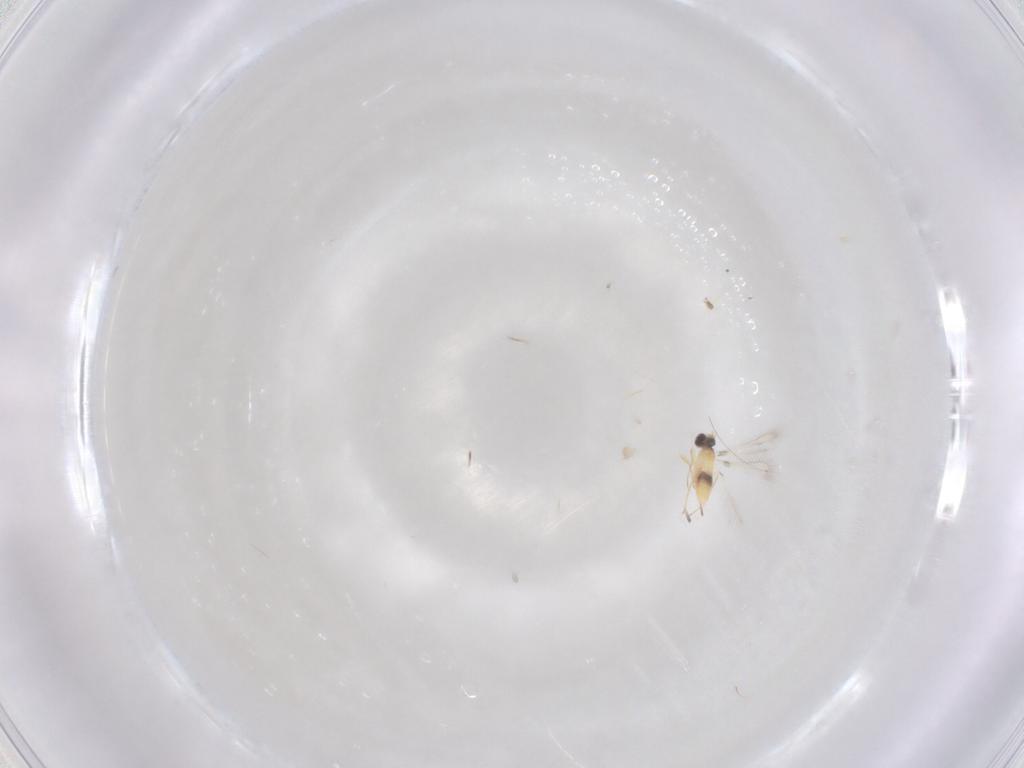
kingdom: Animalia
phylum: Arthropoda
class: Insecta
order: Hymenoptera
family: Mymaridae
